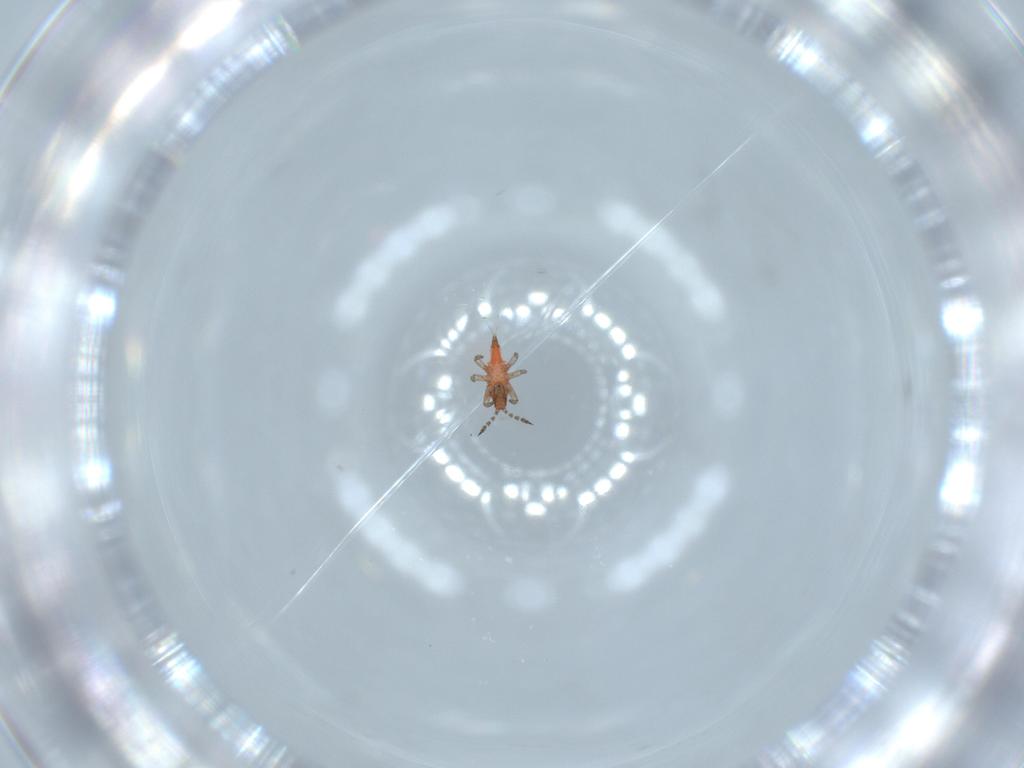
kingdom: Animalia
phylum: Arthropoda
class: Insecta
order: Thysanoptera
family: Phlaeothripidae
